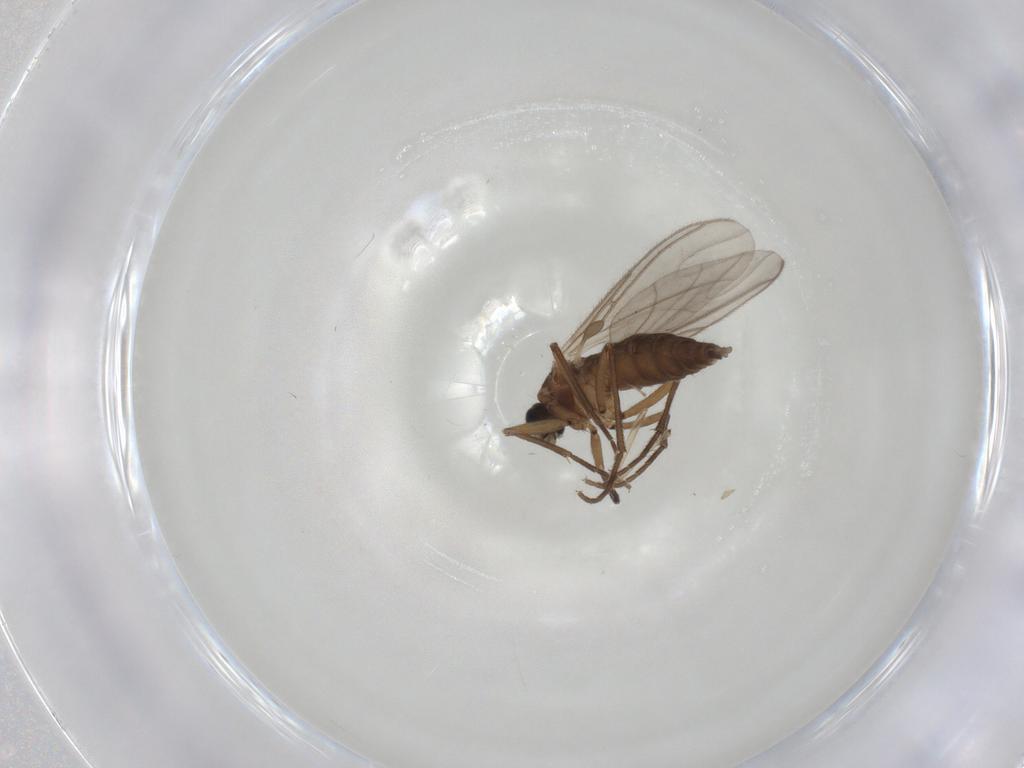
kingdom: Animalia
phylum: Arthropoda
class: Insecta
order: Diptera
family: Sciaridae
